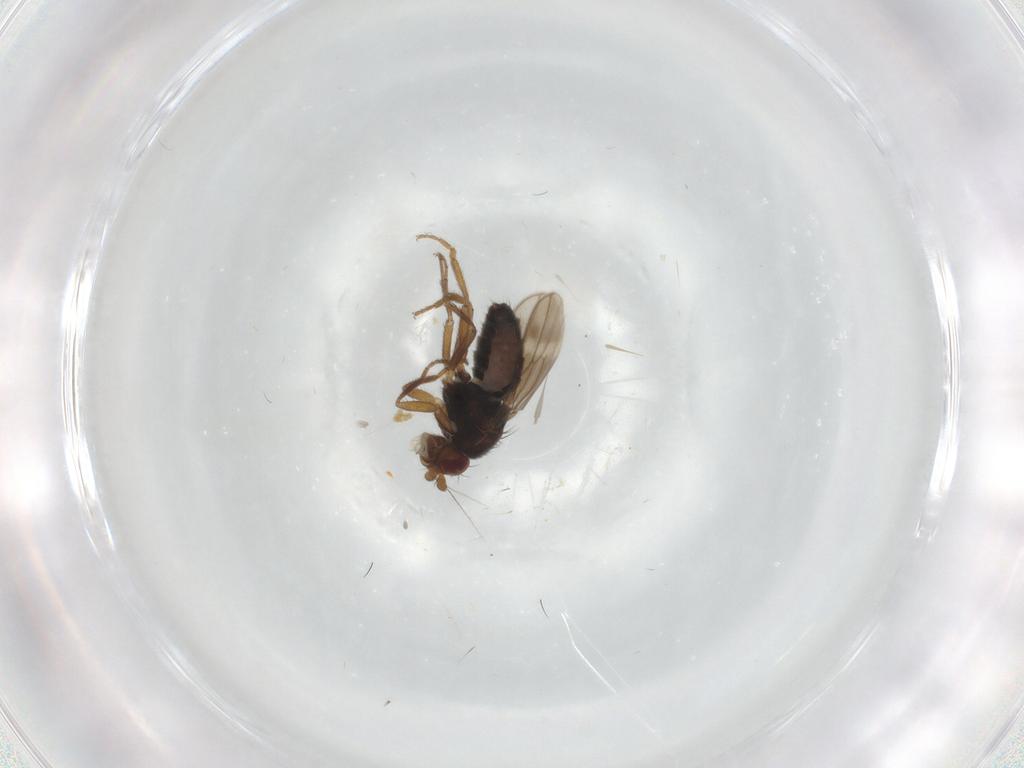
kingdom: Animalia
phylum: Arthropoda
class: Insecta
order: Diptera
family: Sphaeroceridae
